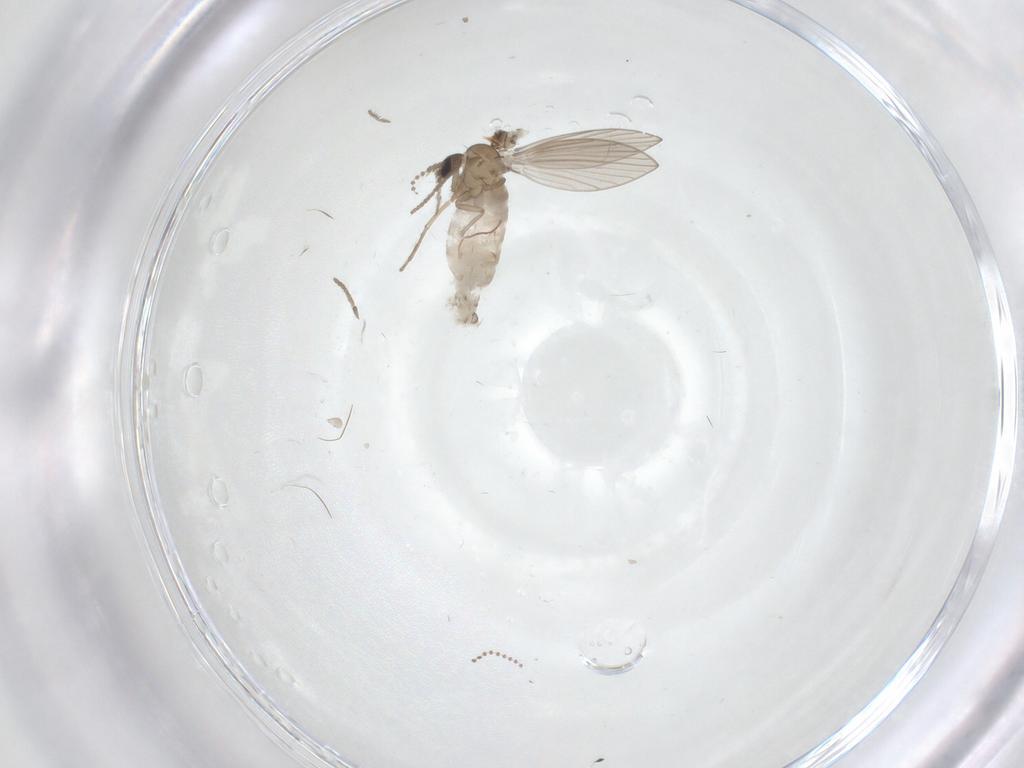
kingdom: Animalia
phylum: Arthropoda
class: Insecta
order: Diptera
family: Psychodidae
